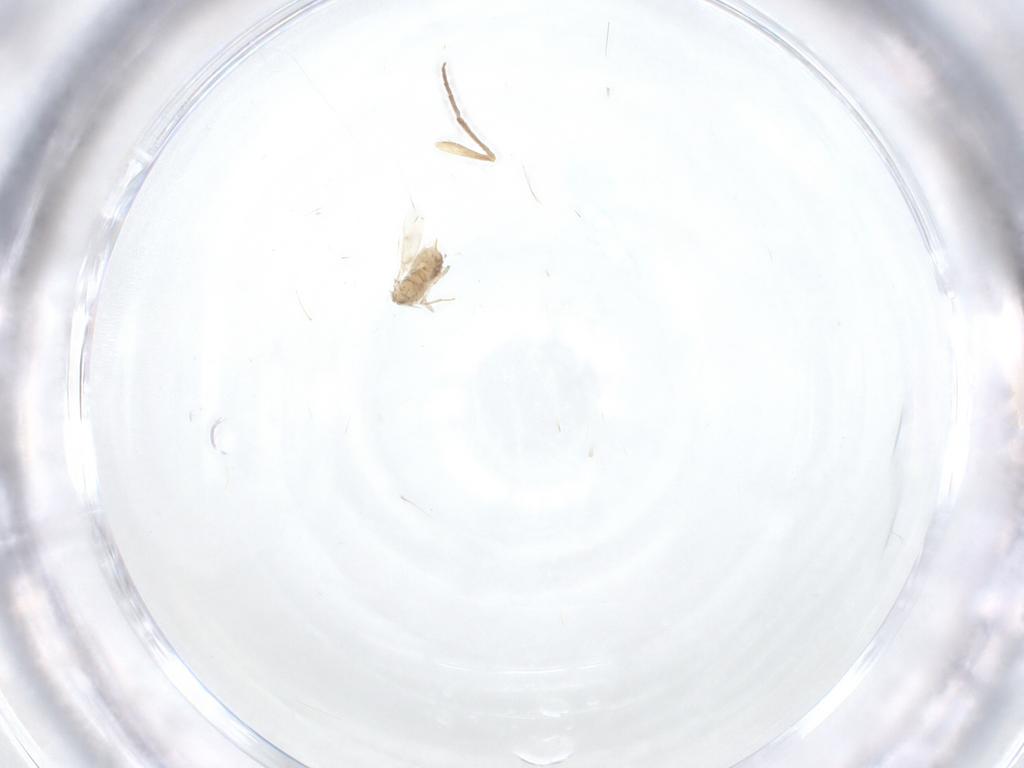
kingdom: Animalia
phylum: Arthropoda
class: Insecta
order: Hymenoptera
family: Aphelinidae
